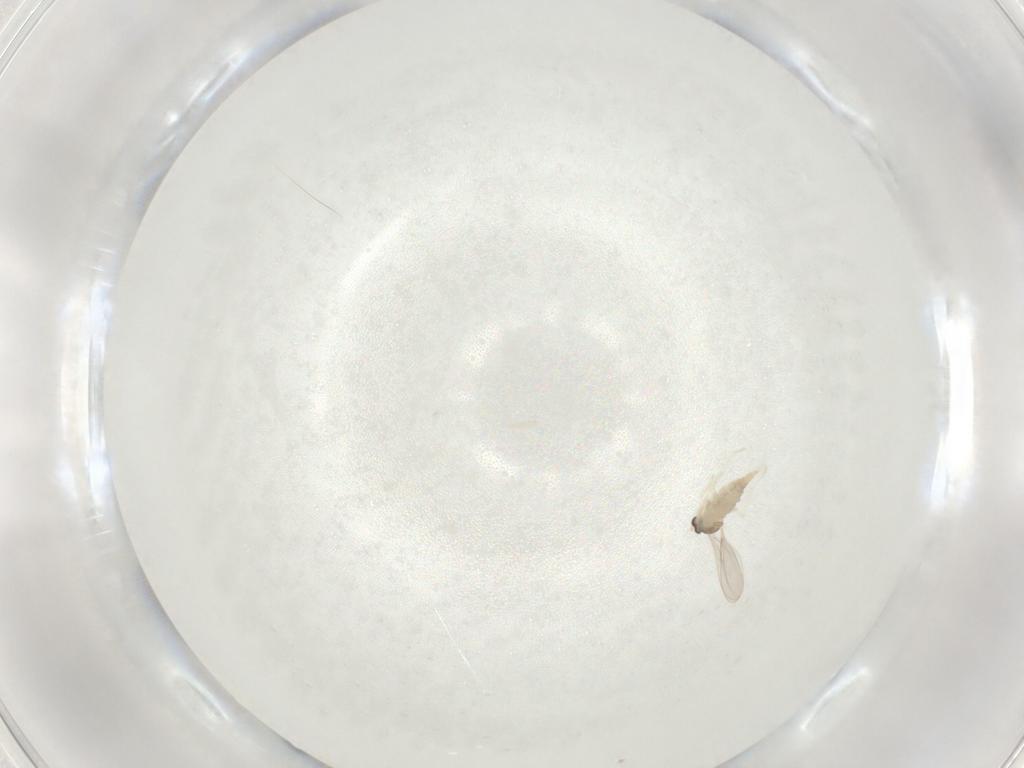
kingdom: Animalia
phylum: Arthropoda
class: Insecta
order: Diptera
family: Cecidomyiidae
